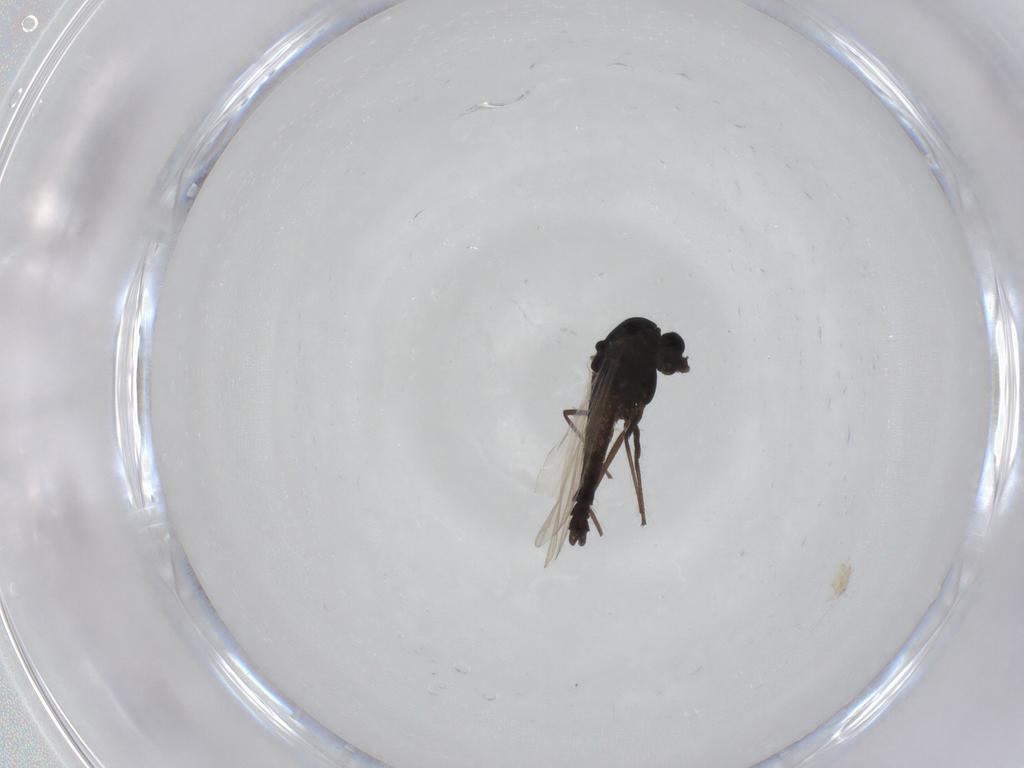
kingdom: Animalia
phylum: Arthropoda
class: Insecta
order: Diptera
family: Chironomidae
